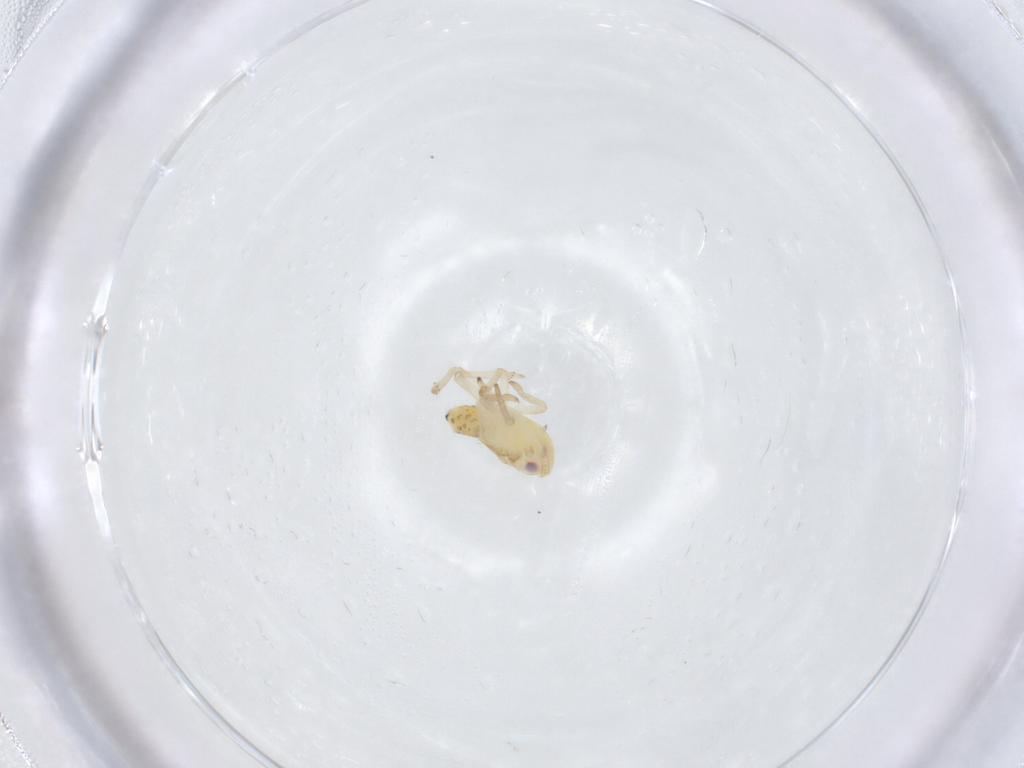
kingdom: Animalia
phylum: Arthropoda
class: Insecta
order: Hemiptera
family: Tropiduchidae
